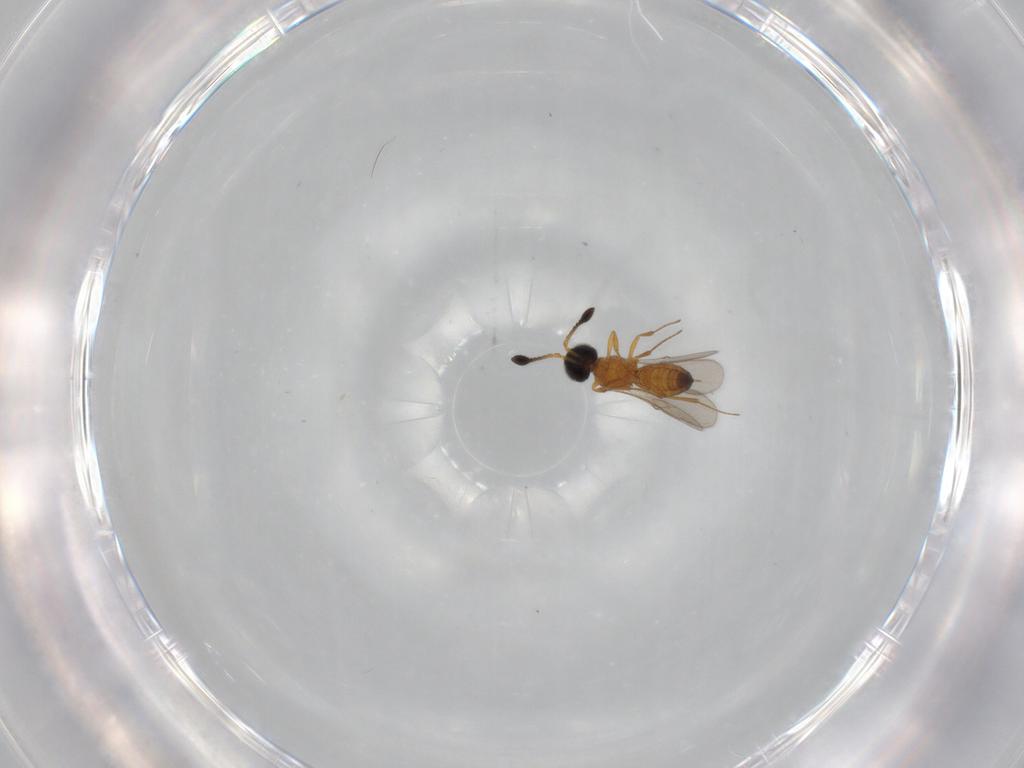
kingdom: Animalia
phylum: Arthropoda
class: Insecta
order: Hymenoptera
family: Scelionidae
